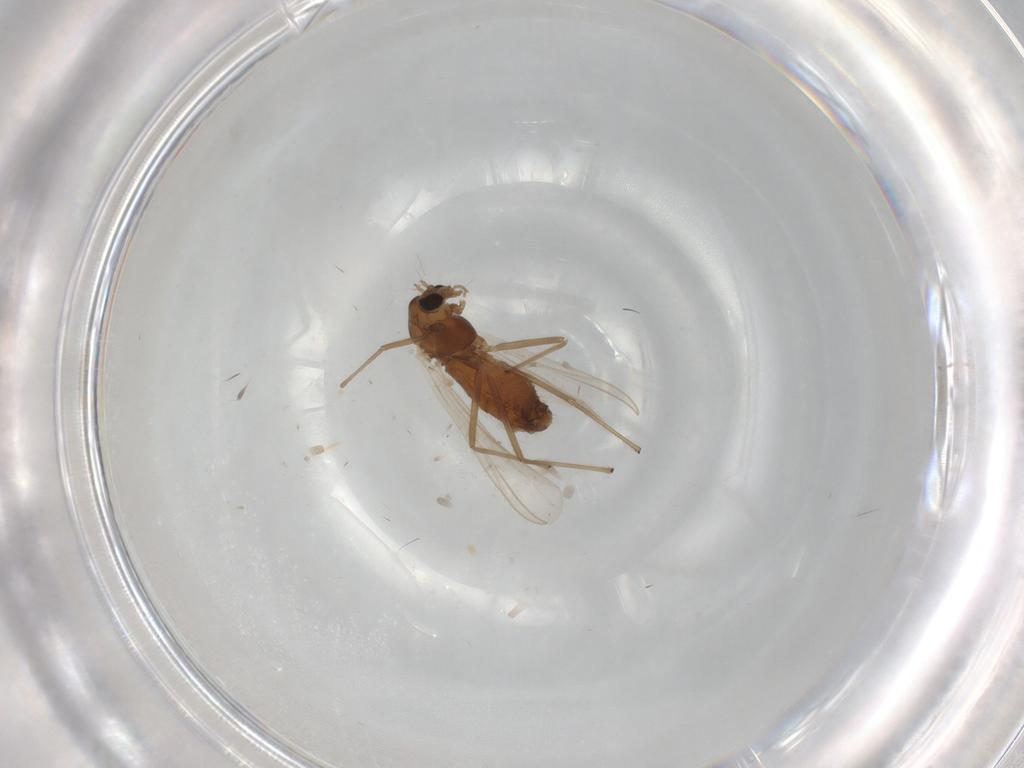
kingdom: Animalia
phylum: Arthropoda
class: Insecta
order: Diptera
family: Chironomidae
